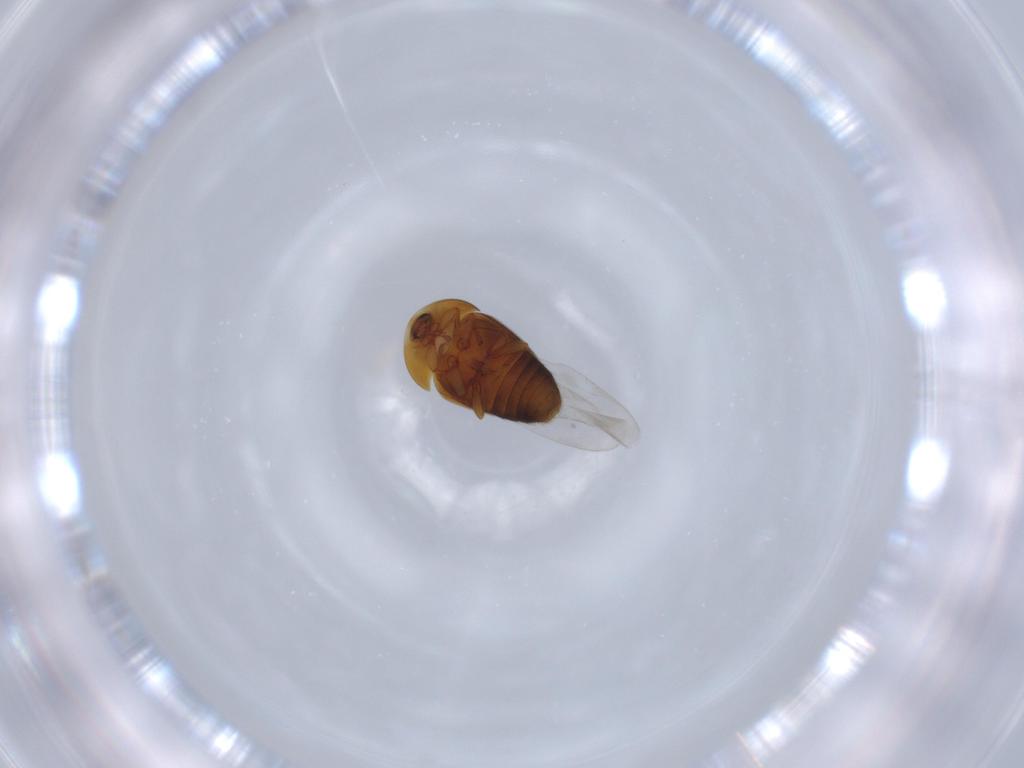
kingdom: Animalia
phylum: Arthropoda
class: Insecta
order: Coleoptera
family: Corylophidae
